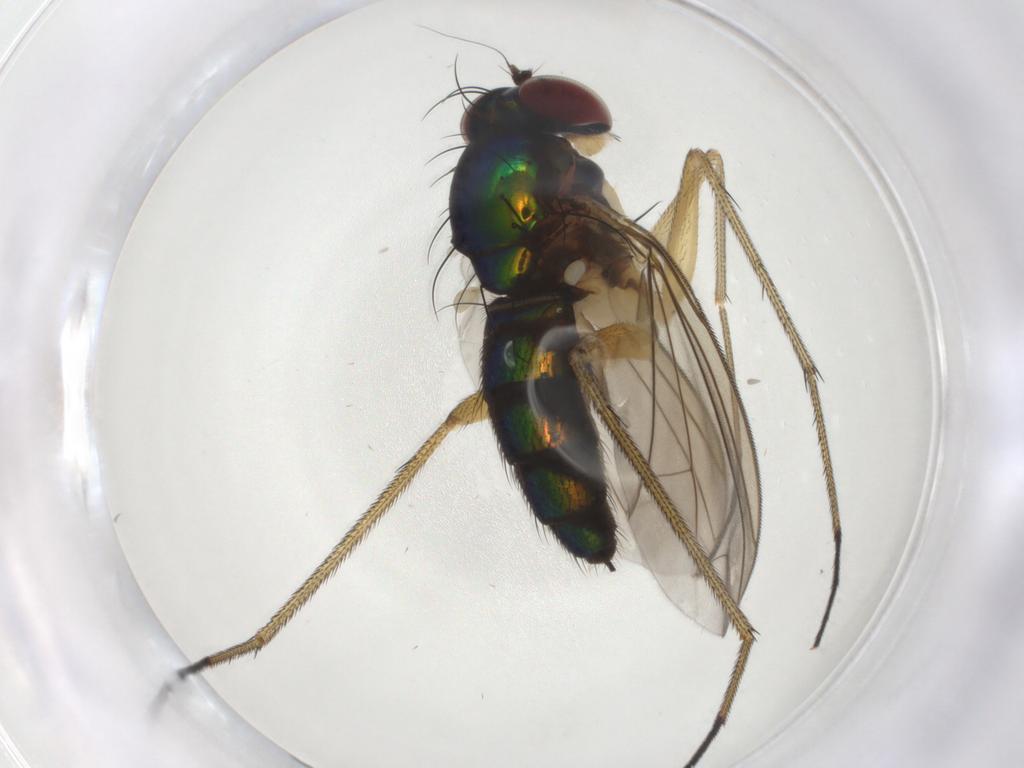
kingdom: Animalia
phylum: Arthropoda
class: Insecta
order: Diptera
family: Dolichopodidae
